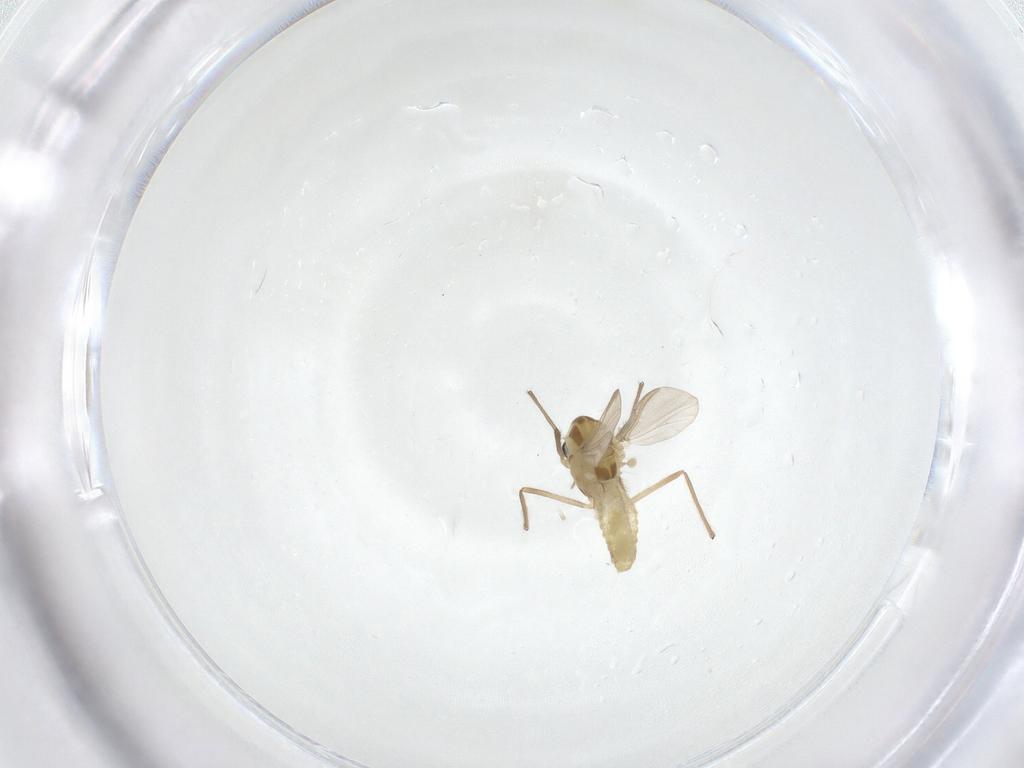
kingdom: Animalia
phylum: Arthropoda
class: Insecta
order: Diptera
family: Chironomidae
